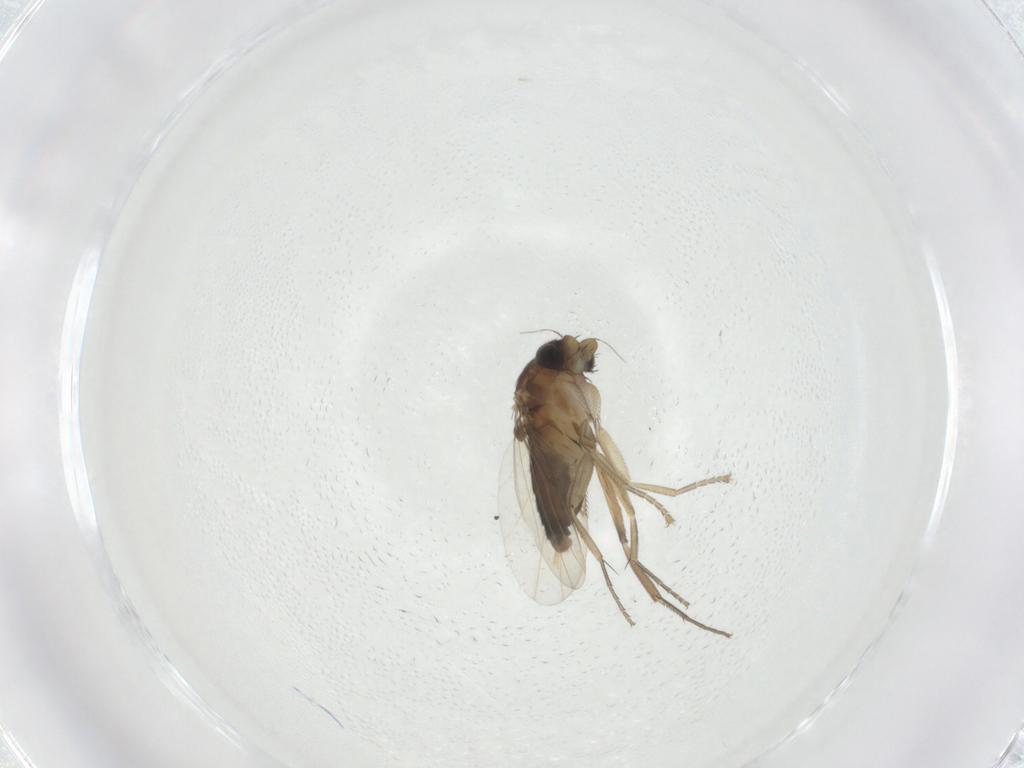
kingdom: Animalia
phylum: Arthropoda
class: Insecta
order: Diptera
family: Phoridae
